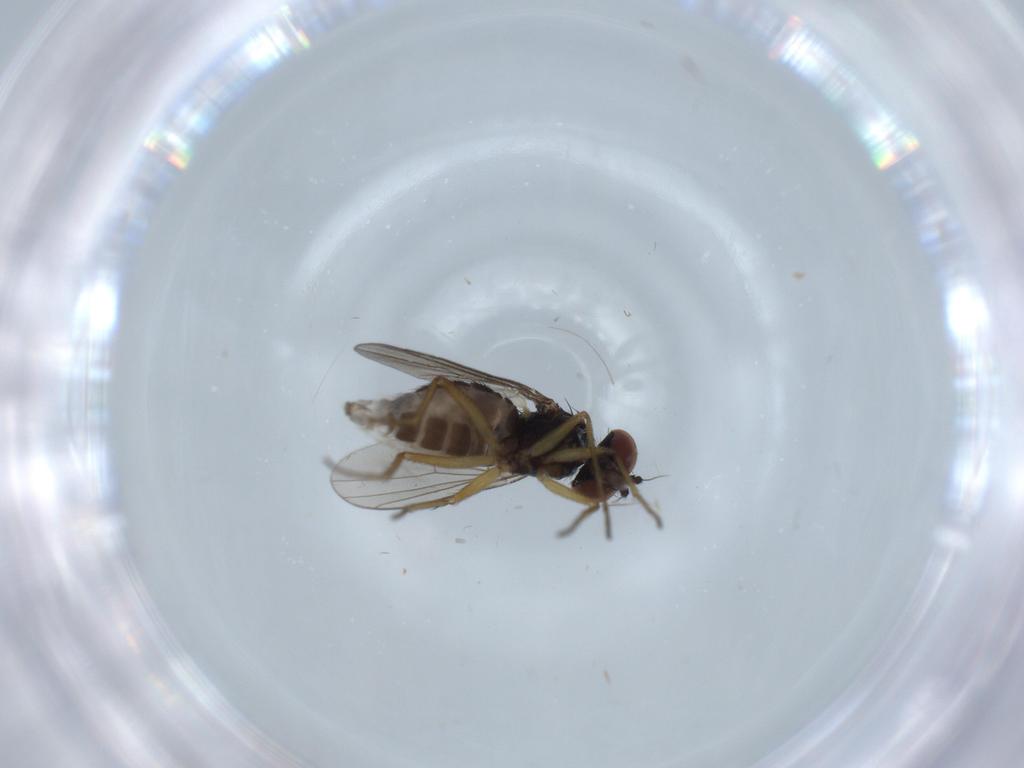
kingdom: Animalia
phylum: Arthropoda
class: Insecta
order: Diptera
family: Dolichopodidae
